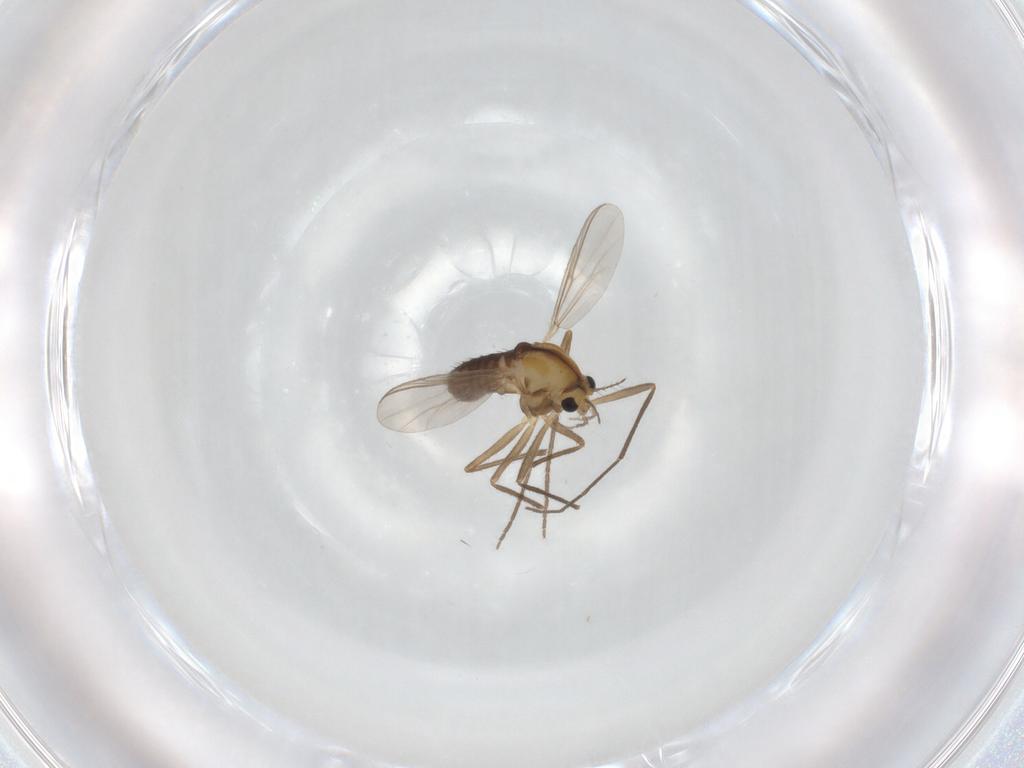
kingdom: Animalia
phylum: Arthropoda
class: Insecta
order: Diptera
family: Chironomidae
